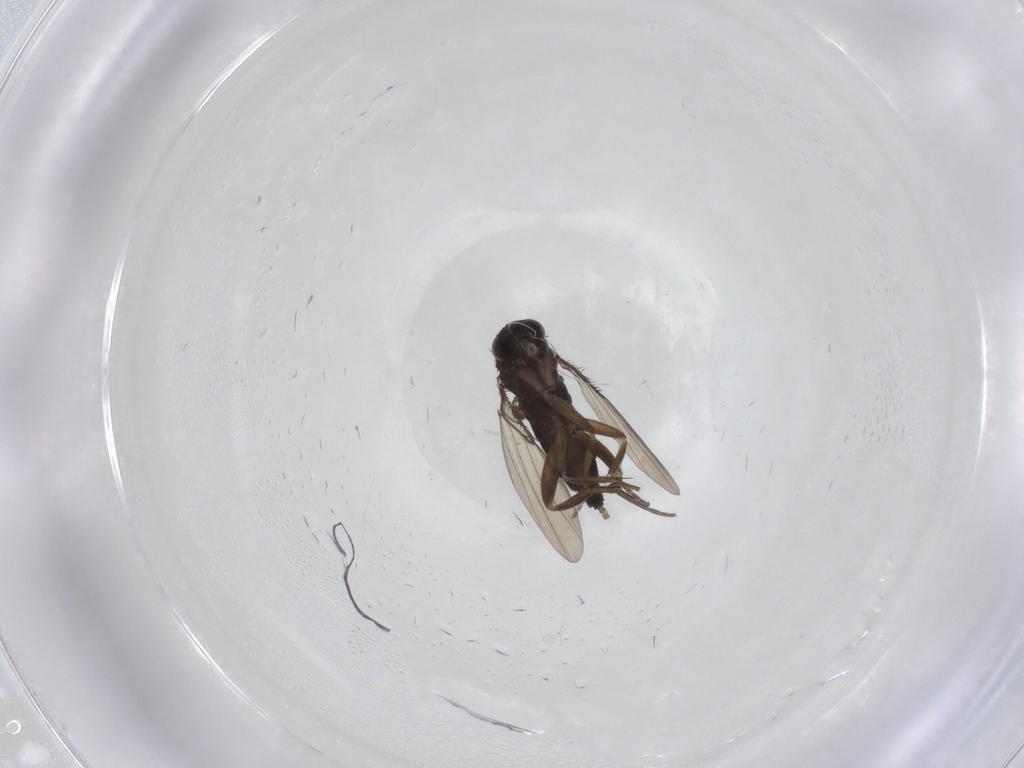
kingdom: Animalia
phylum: Arthropoda
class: Insecta
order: Diptera
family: Phoridae
